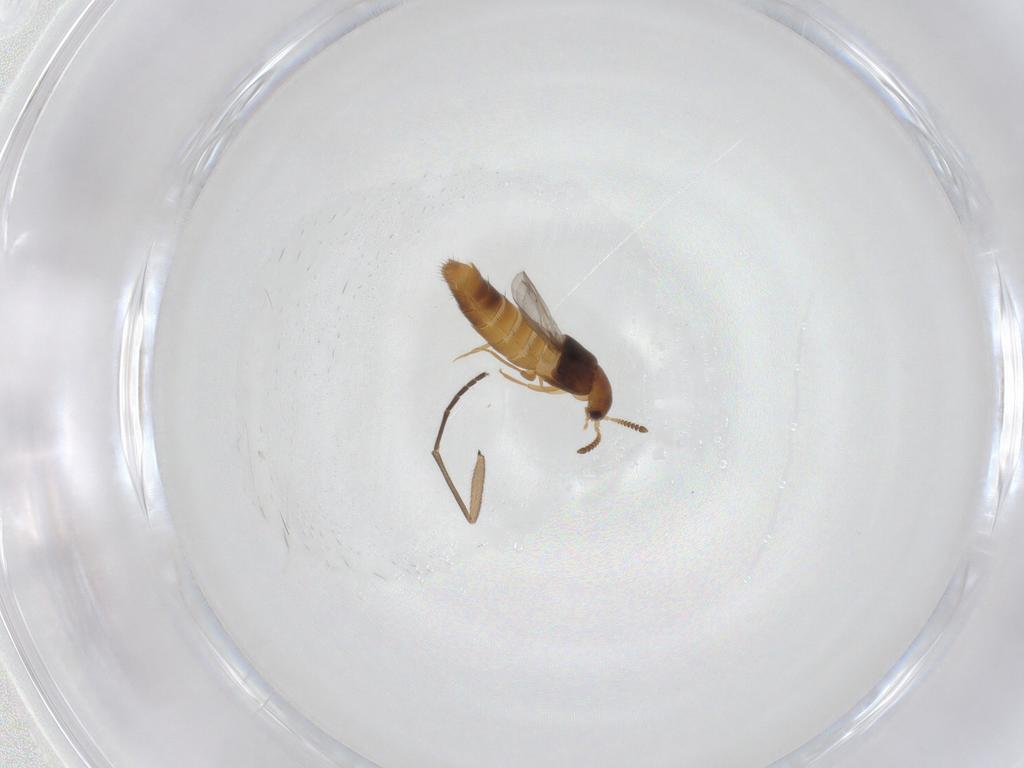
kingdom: Animalia
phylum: Arthropoda
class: Insecta
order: Coleoptera
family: Staphylinidae
